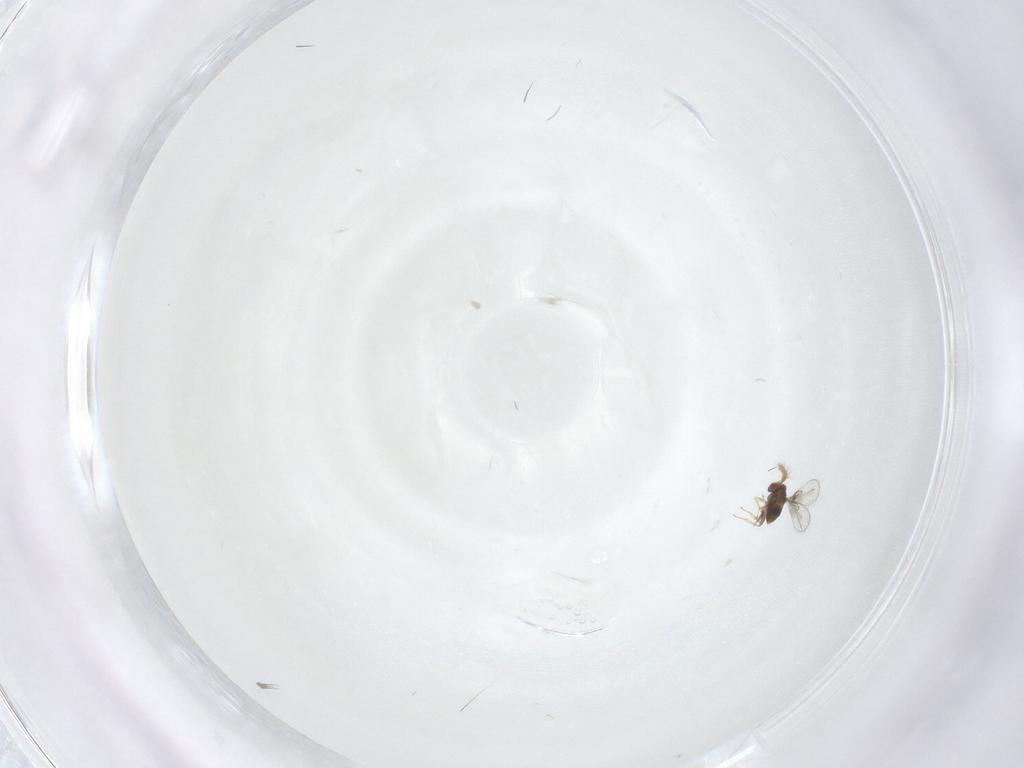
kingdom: Animalia
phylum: Arthropoda
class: Insecta
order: Hymenoptera
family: Trichogrammatidae
